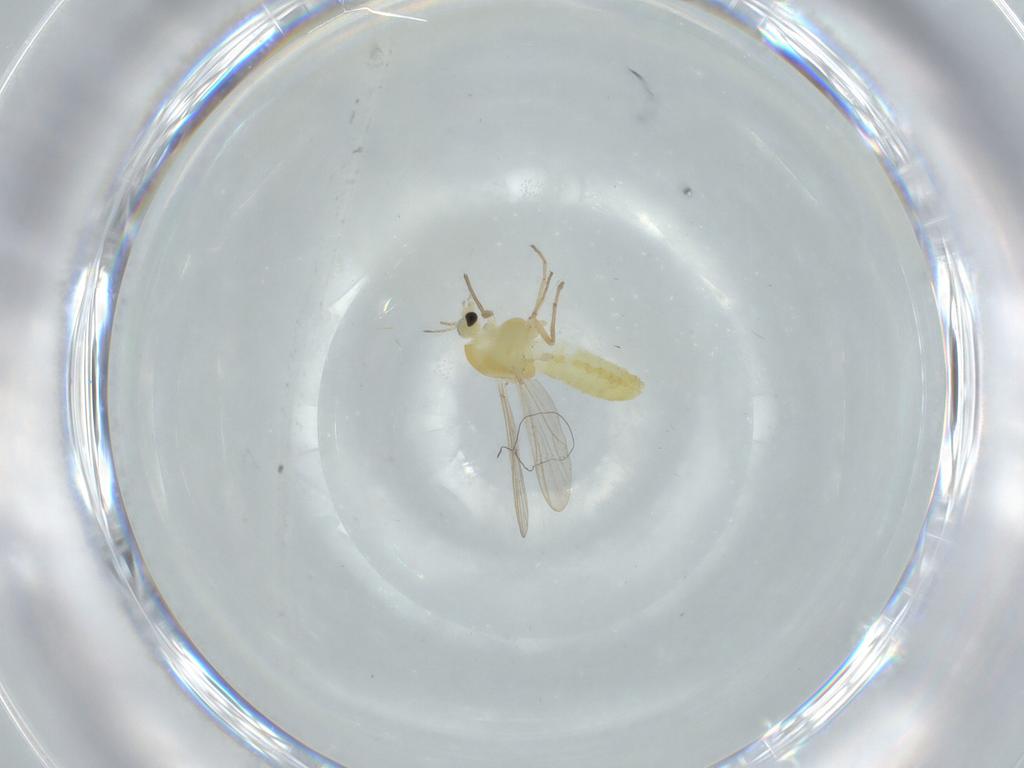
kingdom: Animalia
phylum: Arthropoda
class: Insecta
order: Diptera
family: Chloropidae
